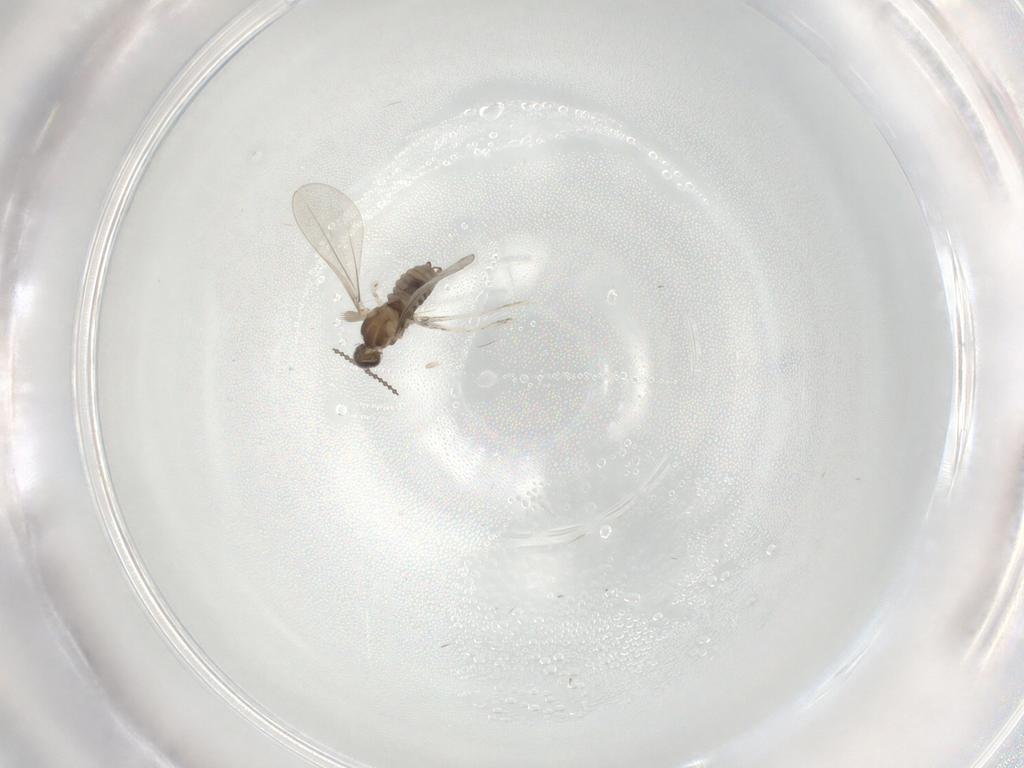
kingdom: Animalia
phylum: Arthropoda
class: Insecta
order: Diptera
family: Cecidomyiidae
